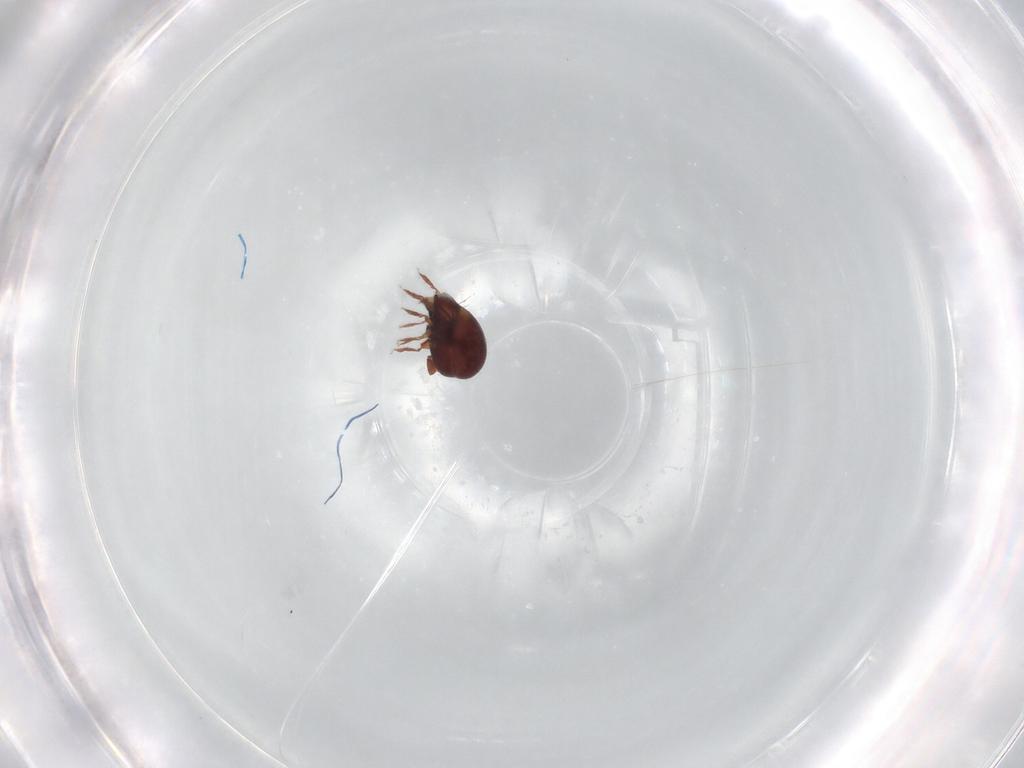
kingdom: Animalia
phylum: Arthropoda
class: Arachnida
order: Sarcoptiformes
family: Humerobatidae
